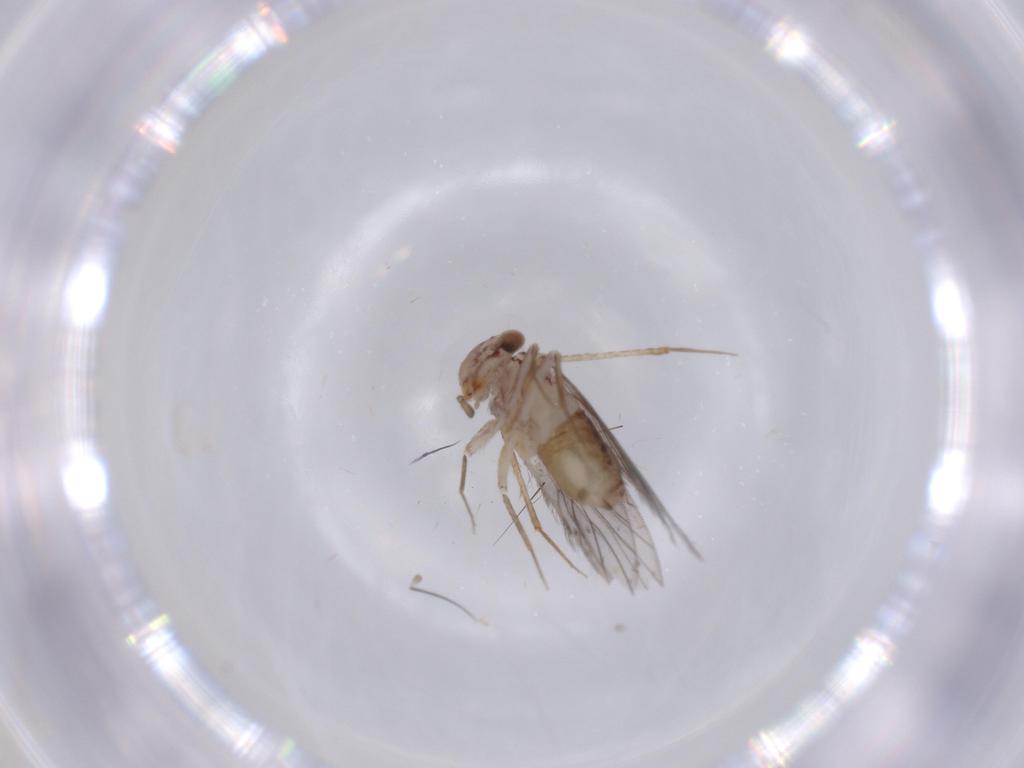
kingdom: Animalia
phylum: Arthropoda
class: Insecta
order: Psocodea
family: Lepidopsocidae
